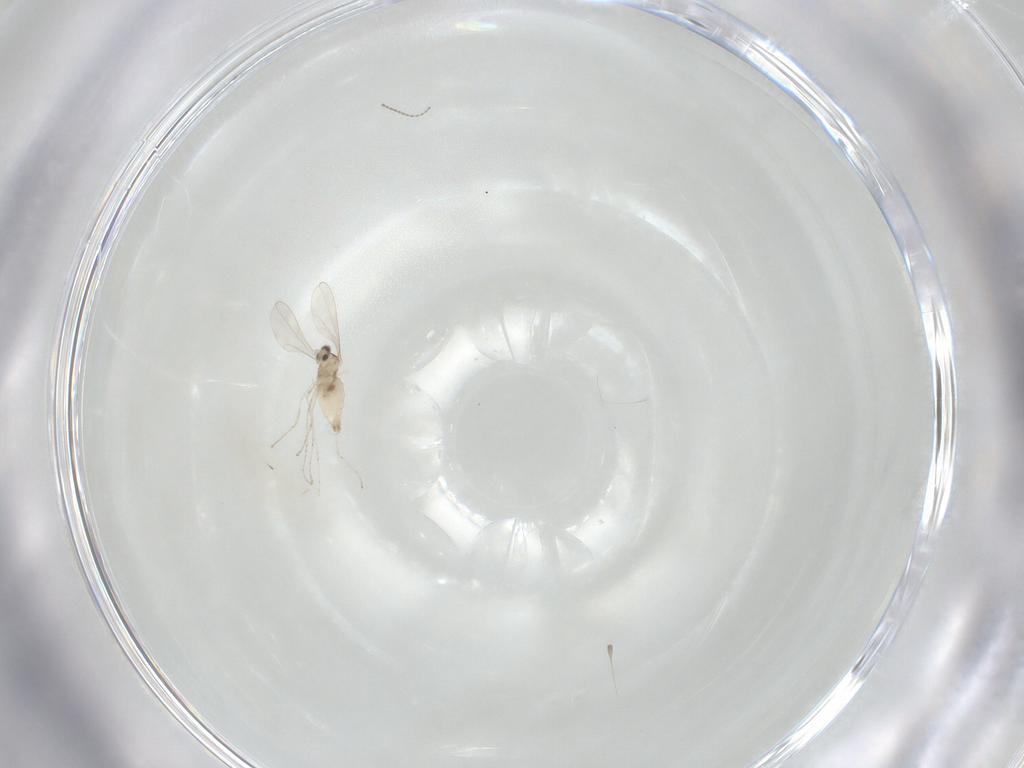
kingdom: Animalia
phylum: Arthropoda
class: Insecta
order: Diptera
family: Cecidomyiidae
